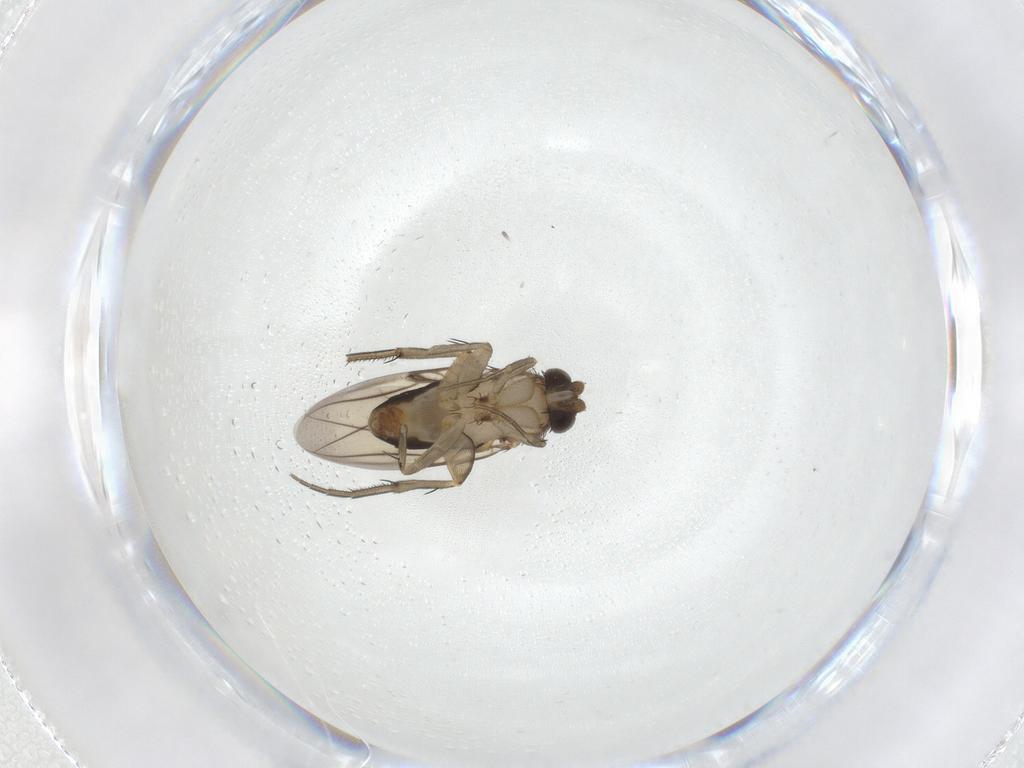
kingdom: Animalia
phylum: Arthropoda
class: Insecta
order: Diptera
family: Phoridae
